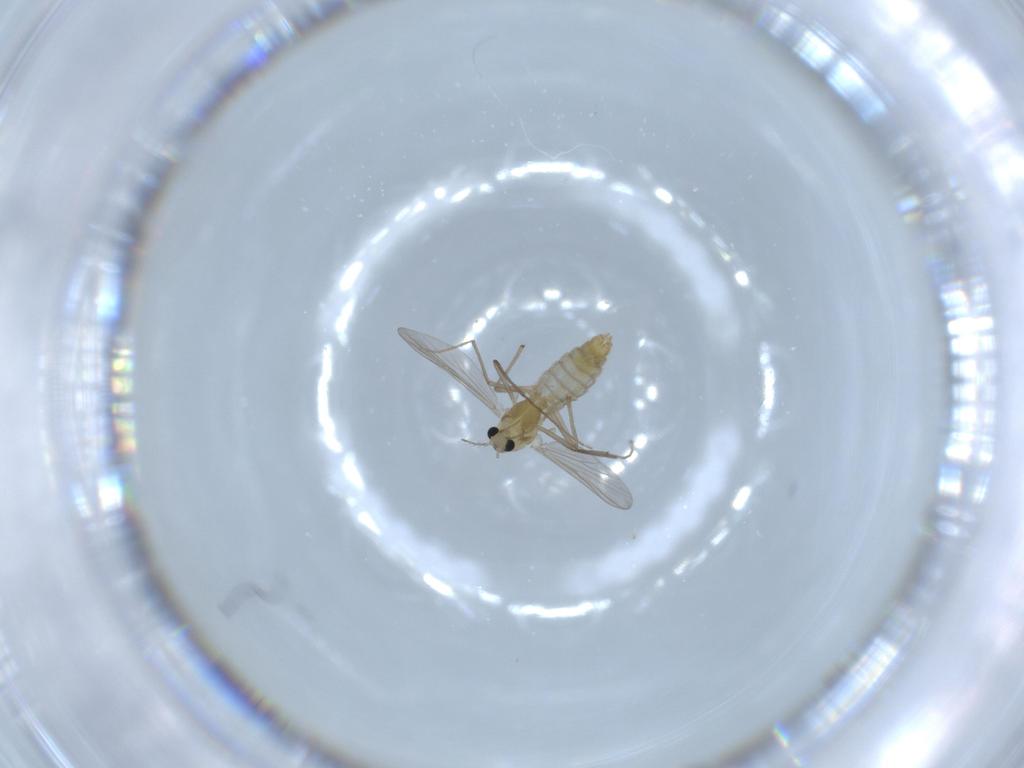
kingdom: Animalia
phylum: Arthropoda
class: Insecta
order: Diptera
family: Chironomidae
